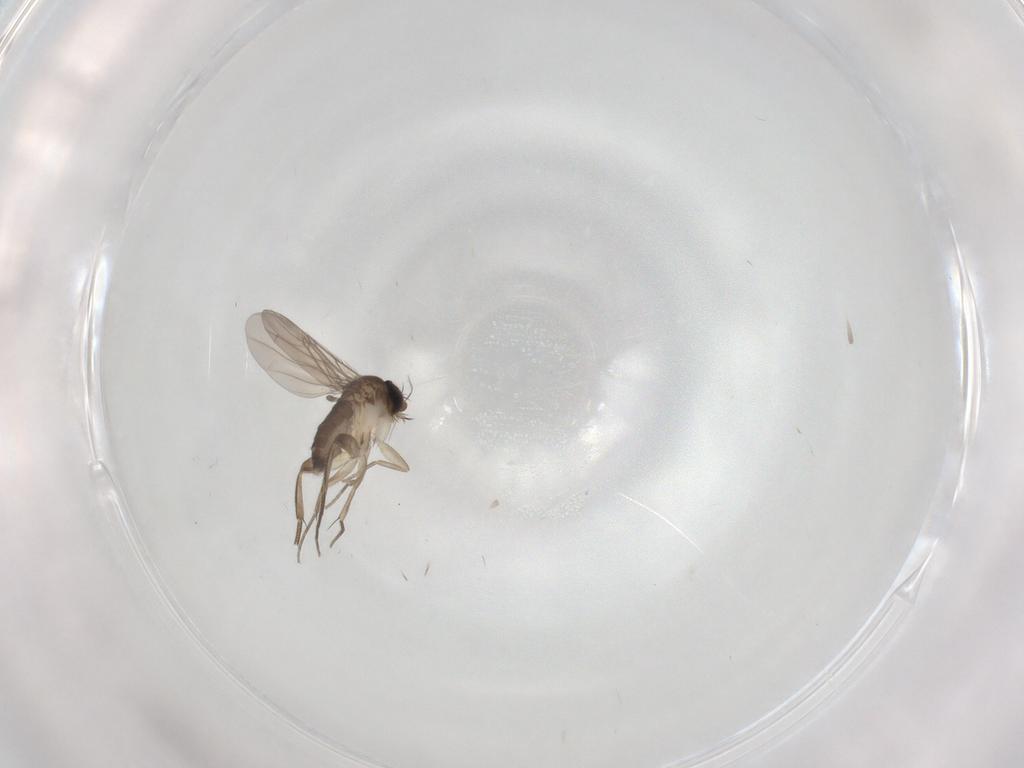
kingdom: Animalia
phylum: Arthropoda
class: Insecta
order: Diptera
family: Phoridae
